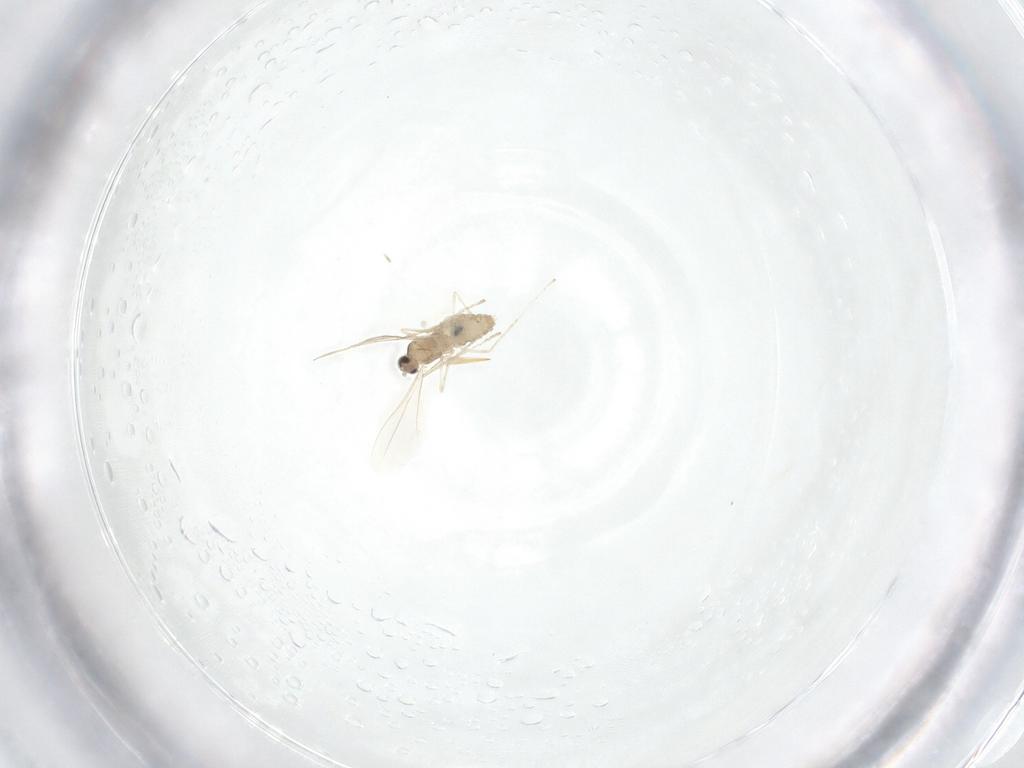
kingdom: Animalia
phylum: Arthropoda
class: Insecta
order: Diptera
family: Cecidomyiidae
